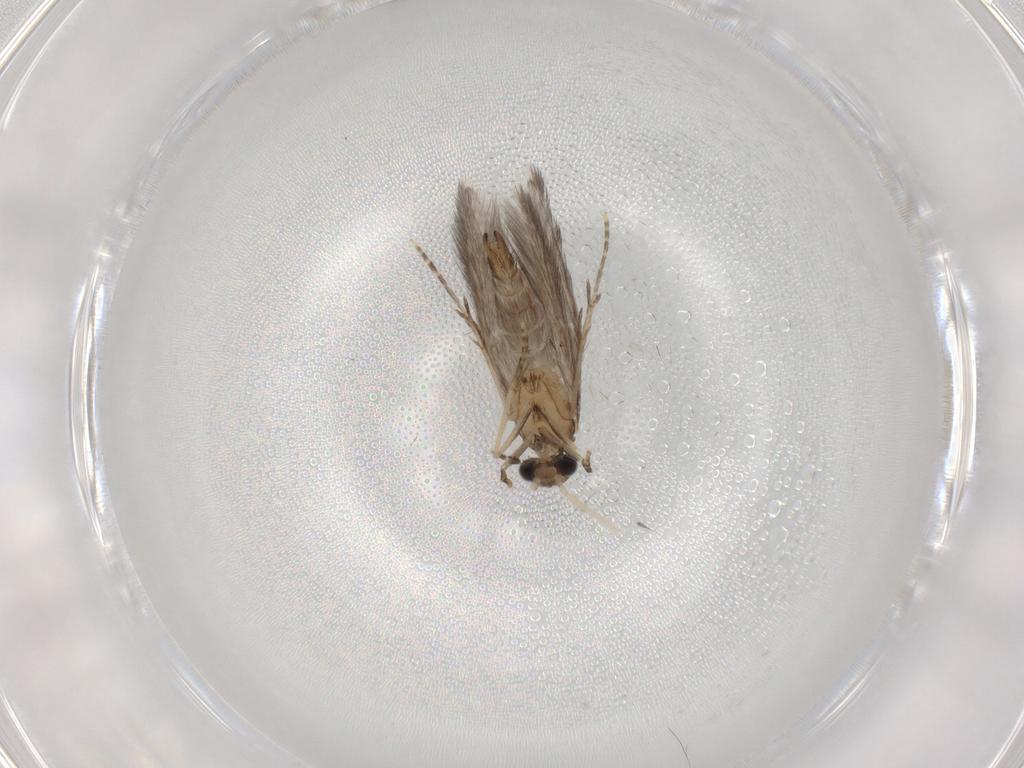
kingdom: Animalia
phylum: Arthropoda
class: Insecta
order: Trichoptera
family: Hydroptilidae
